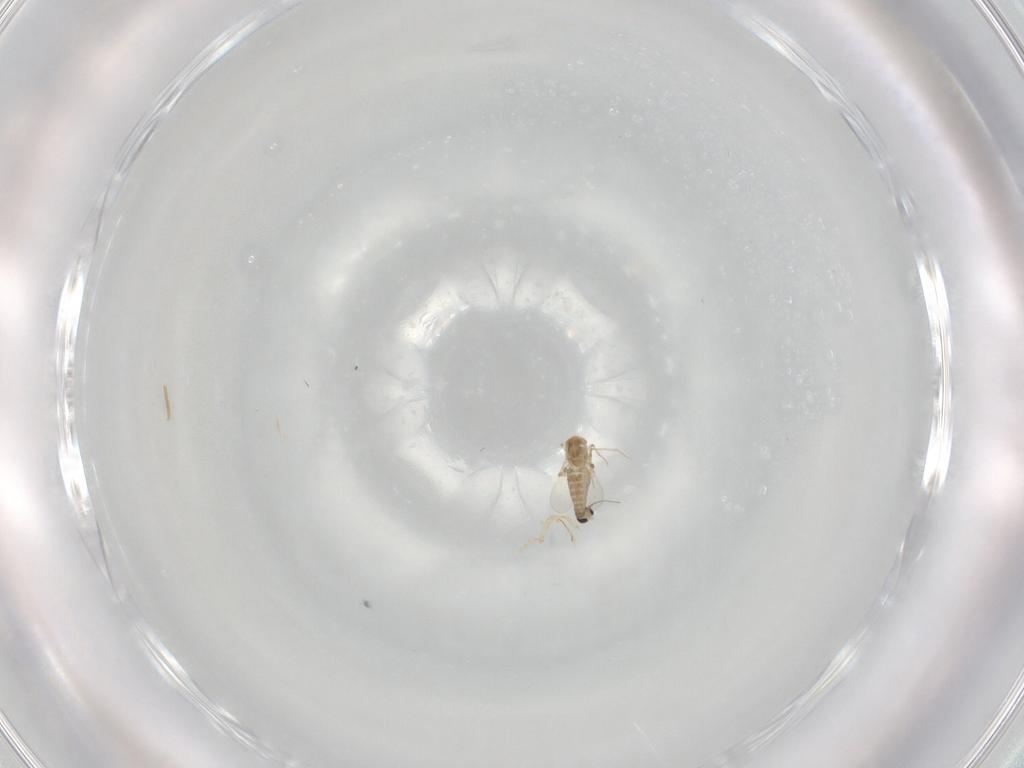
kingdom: Animalia
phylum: Arthropoda
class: Insecta
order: Diptera
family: Ceratopogonidae
